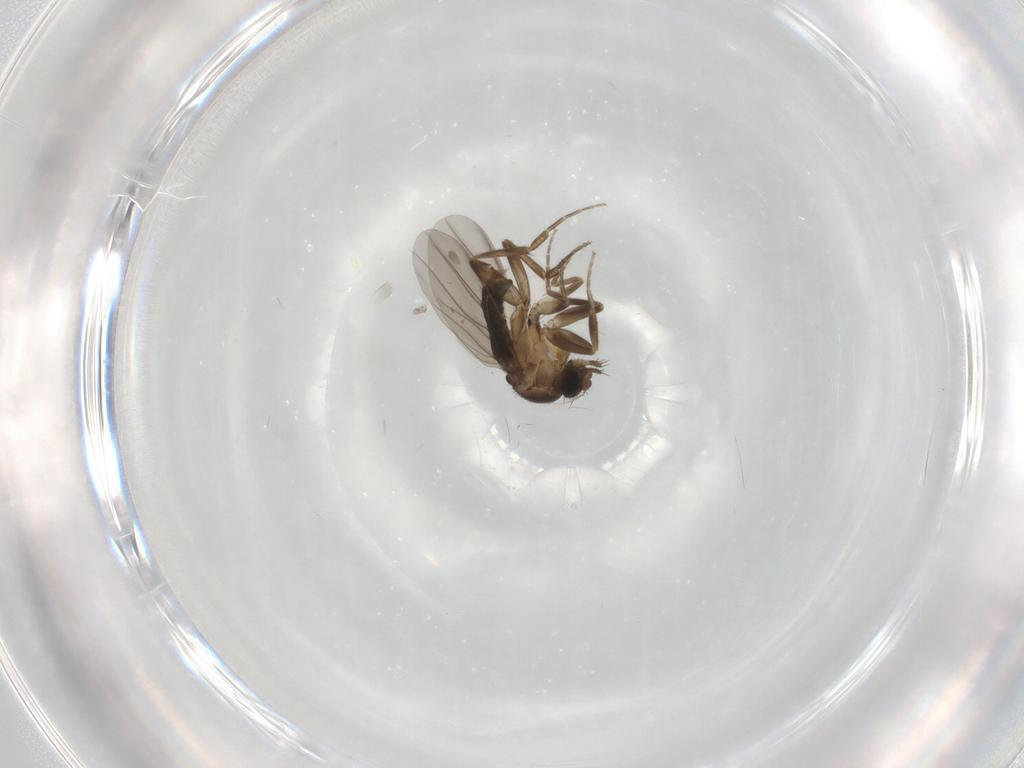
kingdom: Animalia
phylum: Arthropoda
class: Insecta
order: Diptera
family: Phoridae
